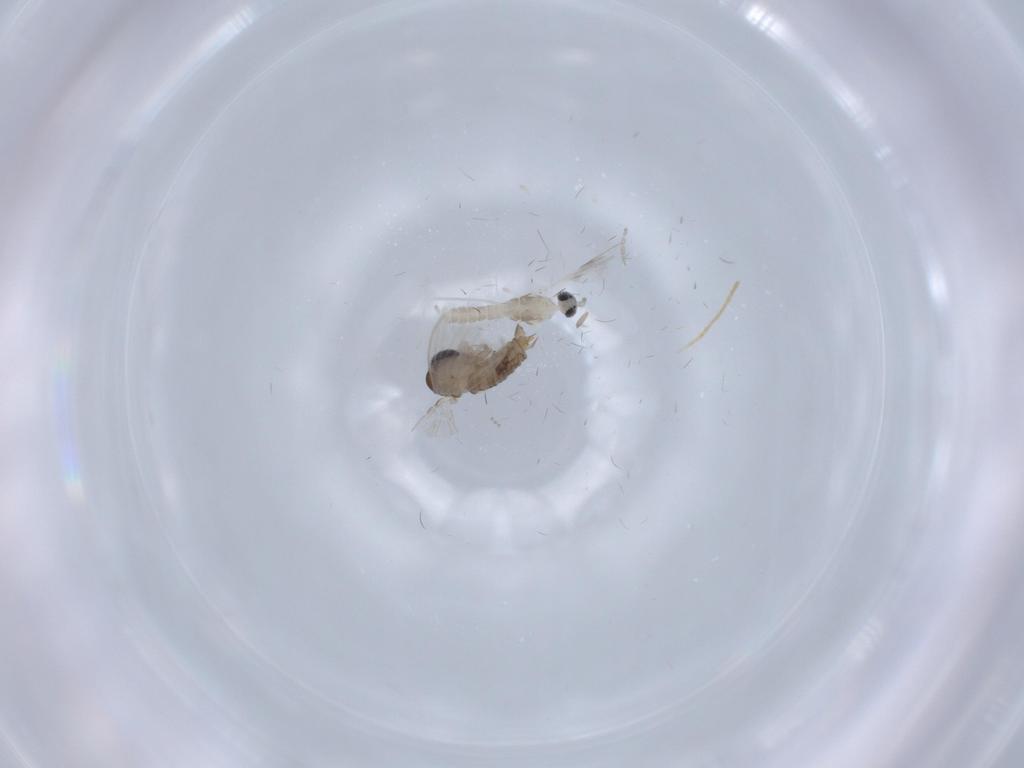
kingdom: Animalia
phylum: Arthropoda
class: Insecta
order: Diptera
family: Psychodidae
